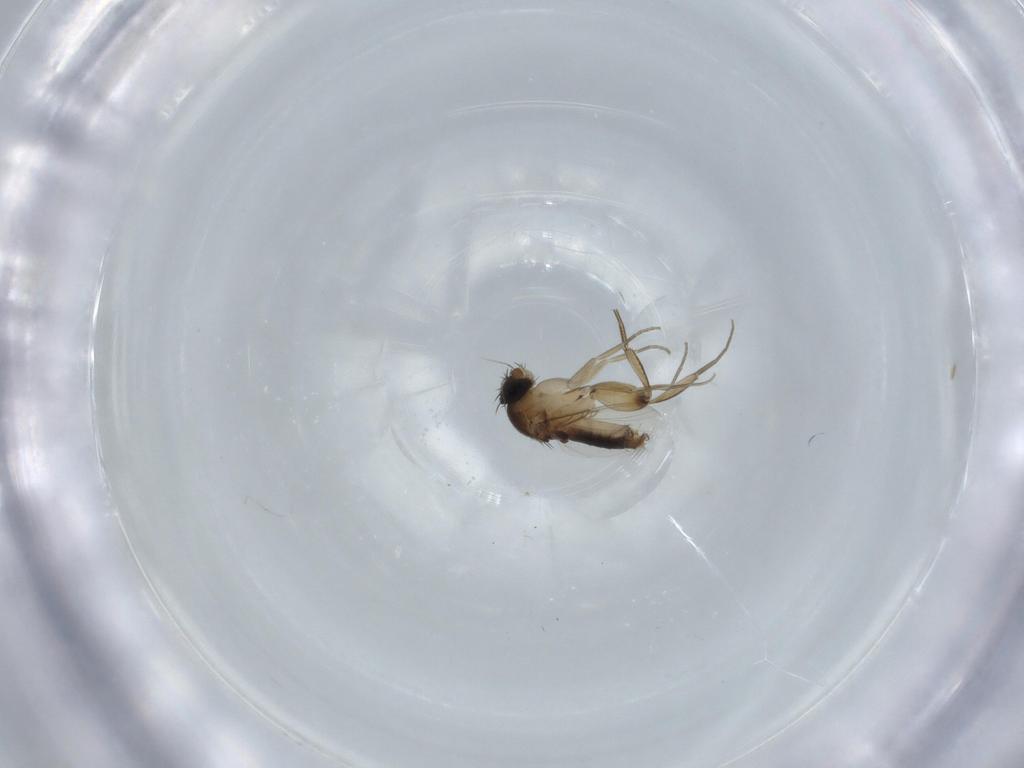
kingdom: Animalia
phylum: Arthropoda
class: Insecta
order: Diptera
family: Phoridae
